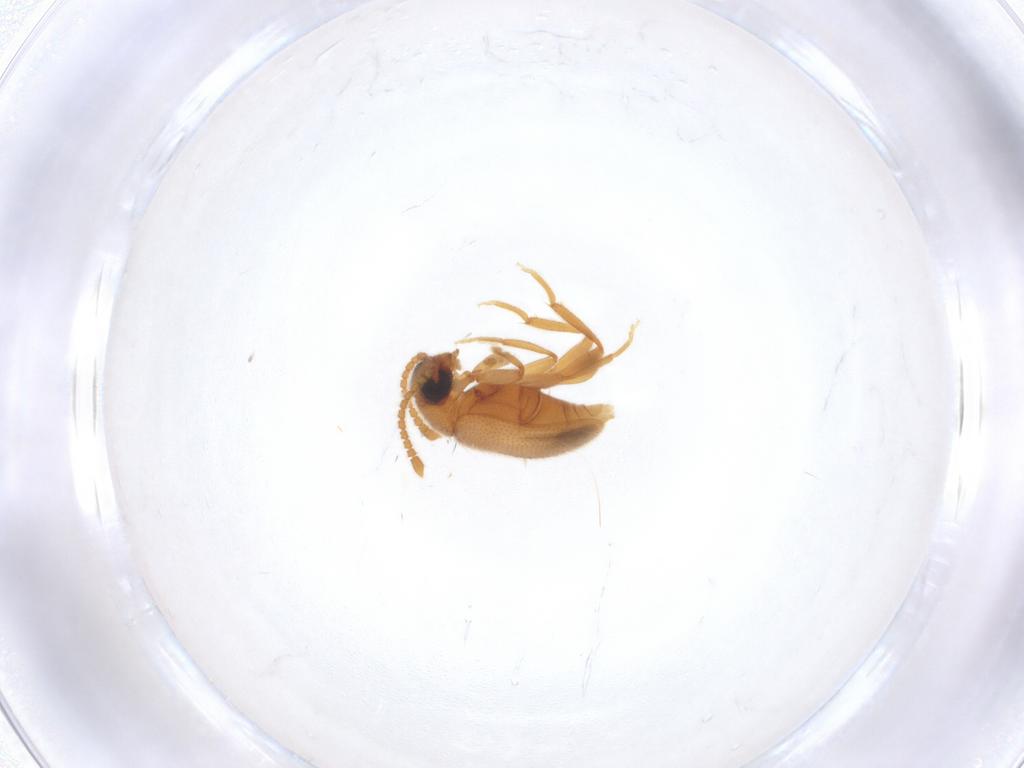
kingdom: Animalia
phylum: Arthropoda
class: Insecta
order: Coleoptera
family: Aderidae
